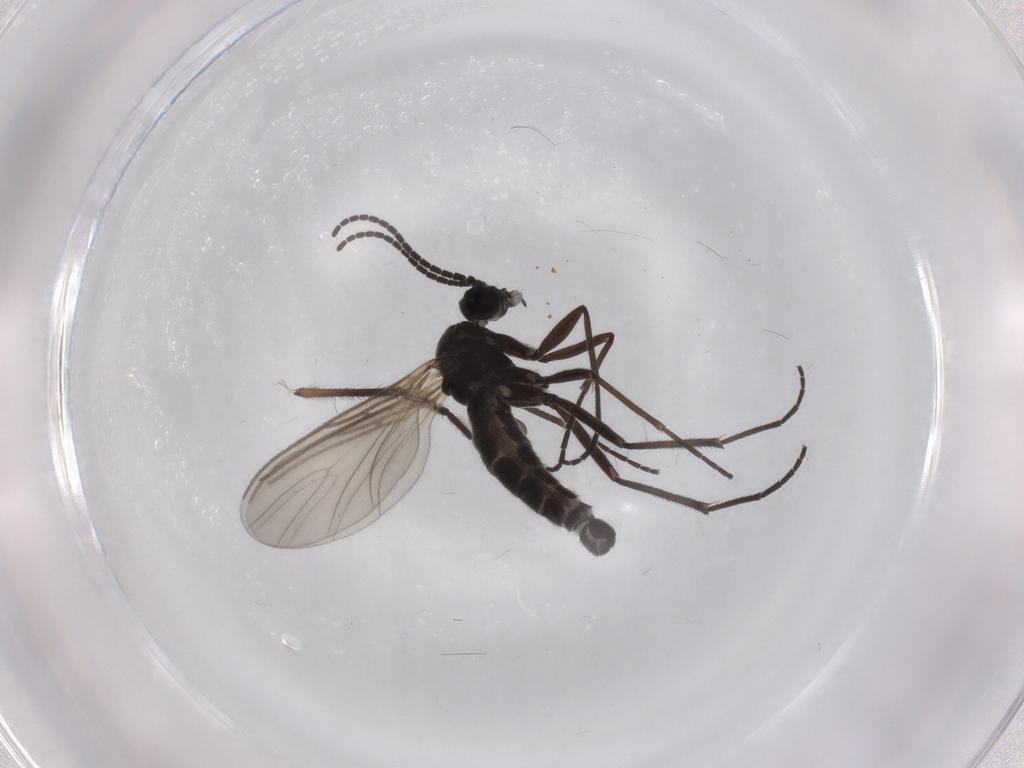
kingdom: Animalia
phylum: Arthropoda
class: Insecta
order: Diptera
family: Sciaridae
